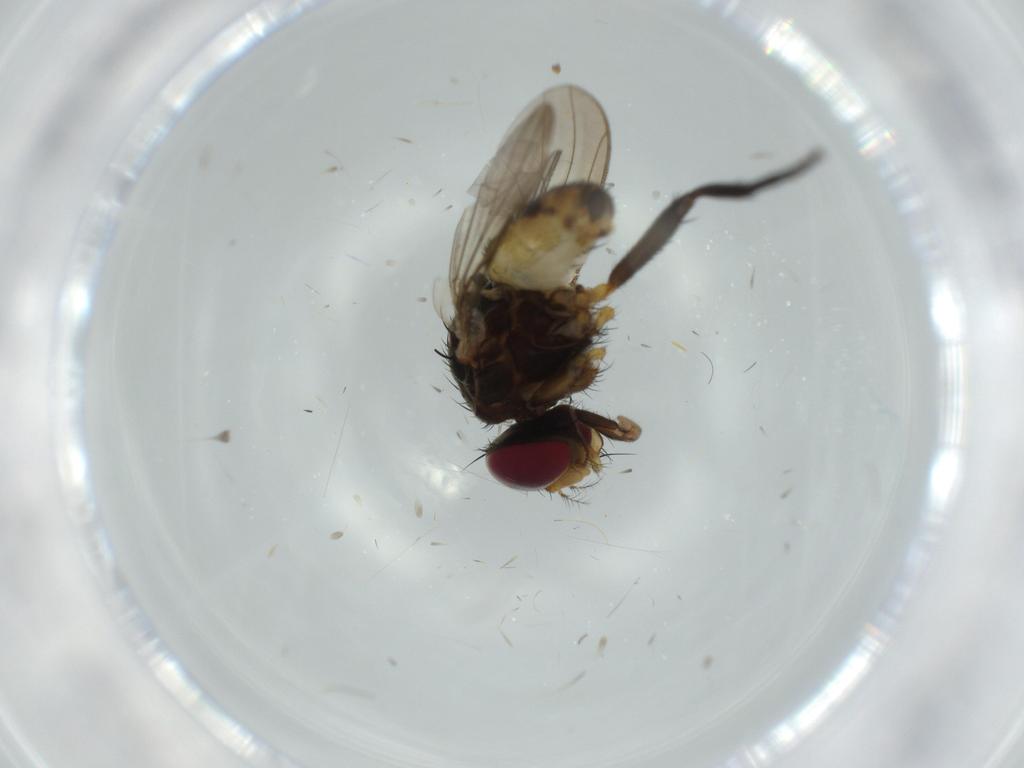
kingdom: Animalia
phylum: Arthropoda
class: Insecta
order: Diptera
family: Anthomyiidae
